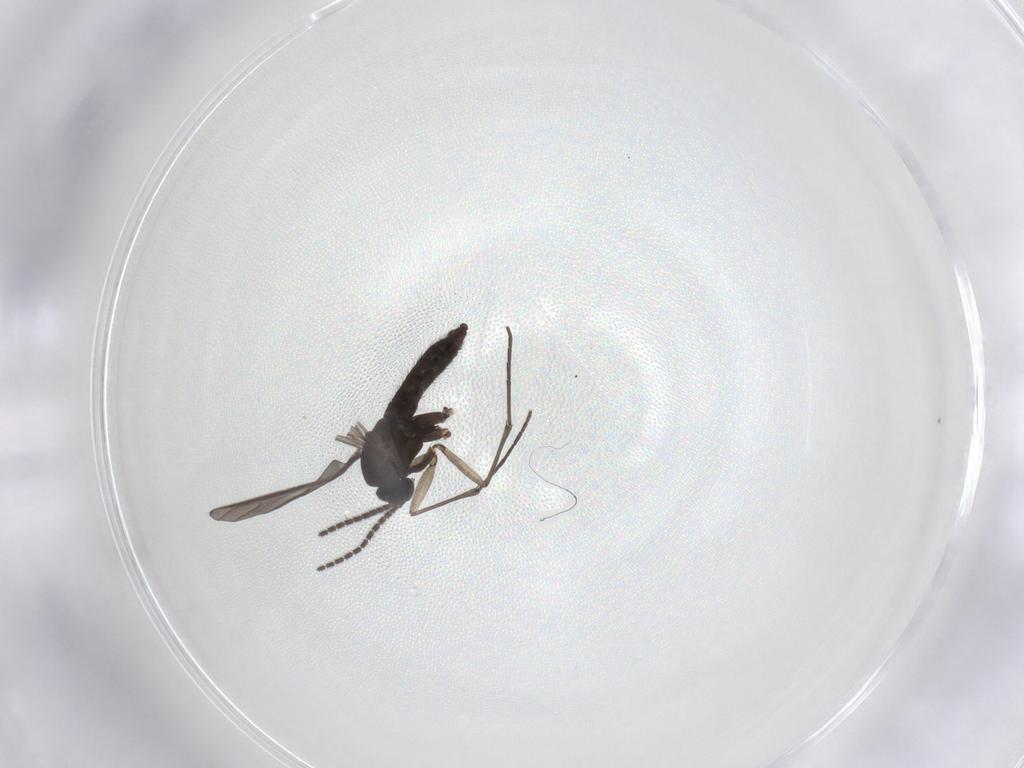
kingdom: Animalia
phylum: Arthropoda
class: Insecta
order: Diptera
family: Sciaridae
